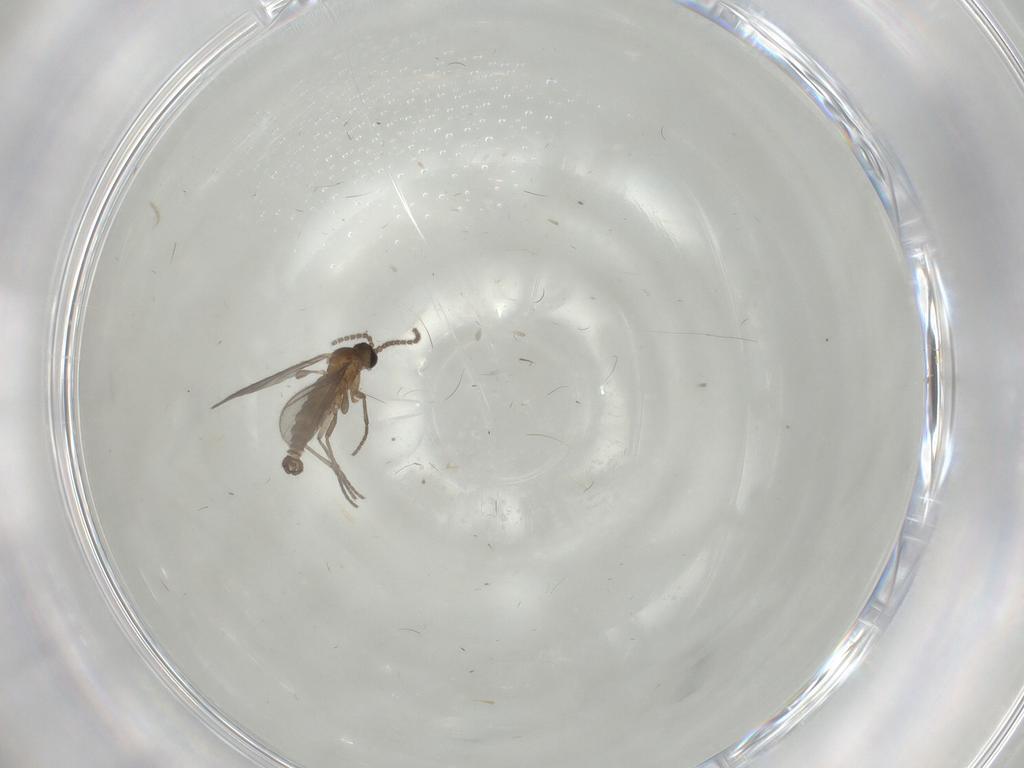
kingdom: Animalia
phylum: Arthropoda
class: Insecta
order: Diptera
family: Sciaridae
